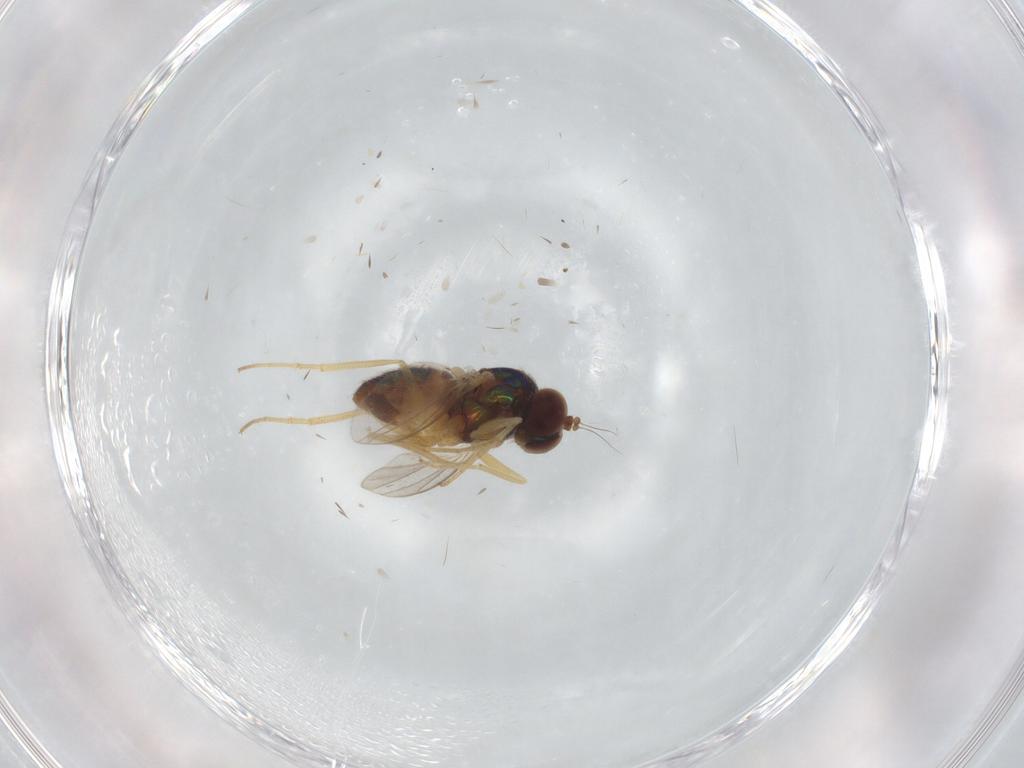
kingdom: Animalia
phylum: Arthropoda
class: Insecta
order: Diptera
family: Dolichopodidae
